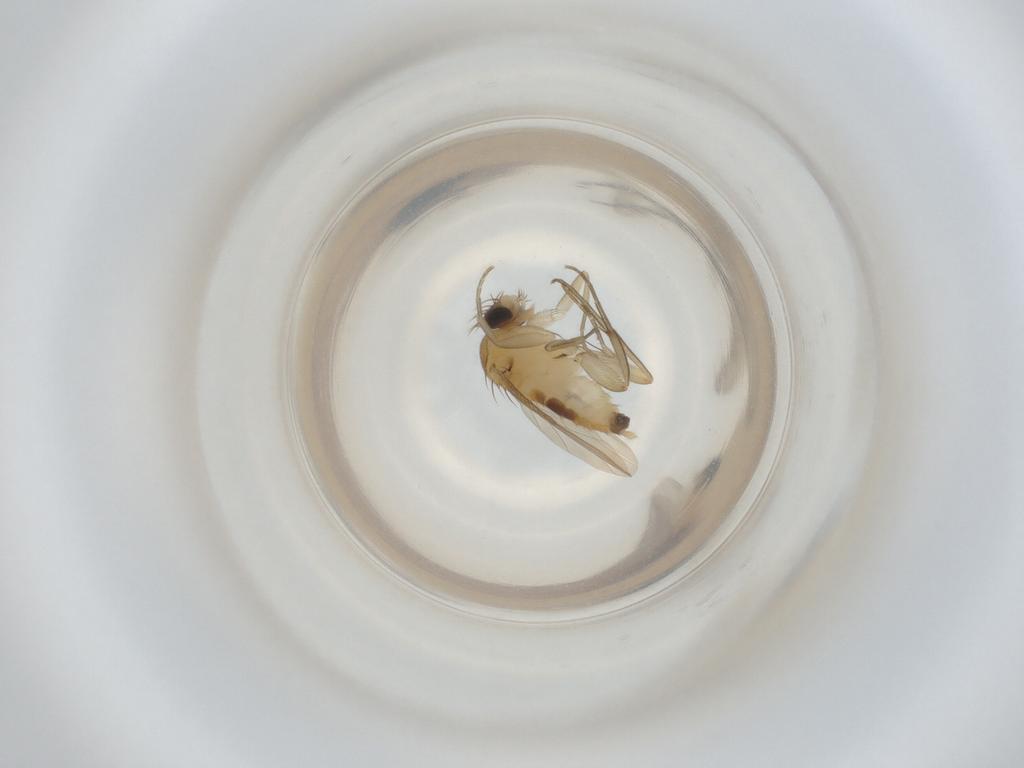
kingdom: Animalia
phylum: Arthropoda
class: Insecta
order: Diptera
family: Phoridae
